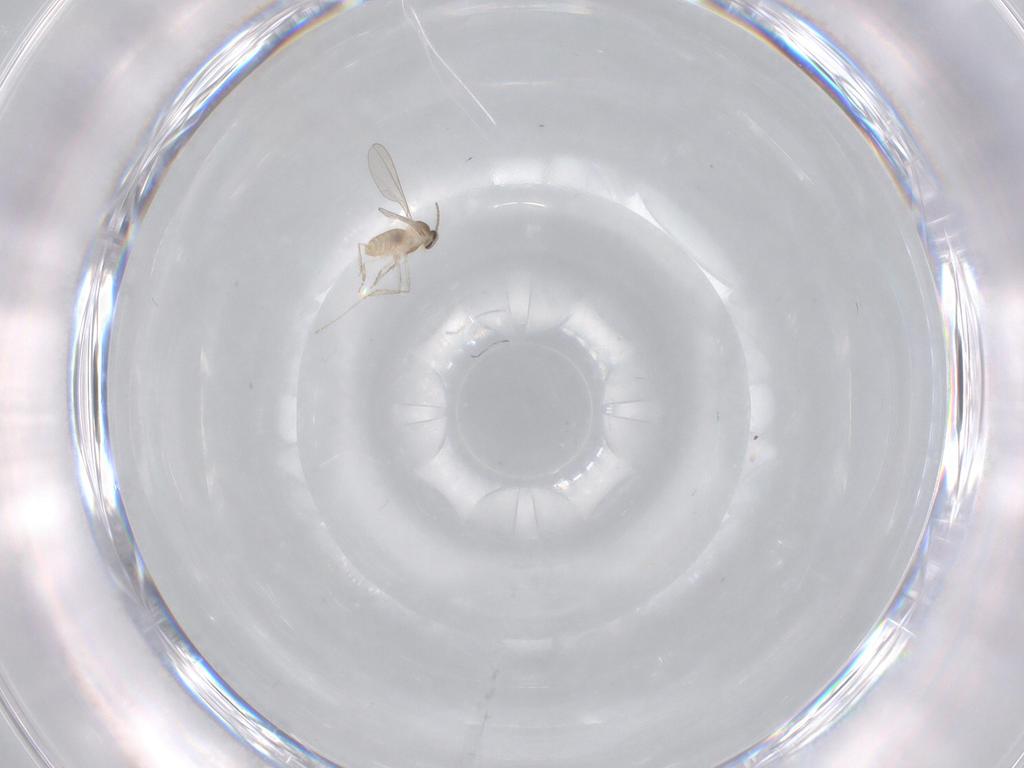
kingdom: Animalia
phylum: Arthropoda
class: Insecta
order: Diptera
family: Cecidomyiidae
